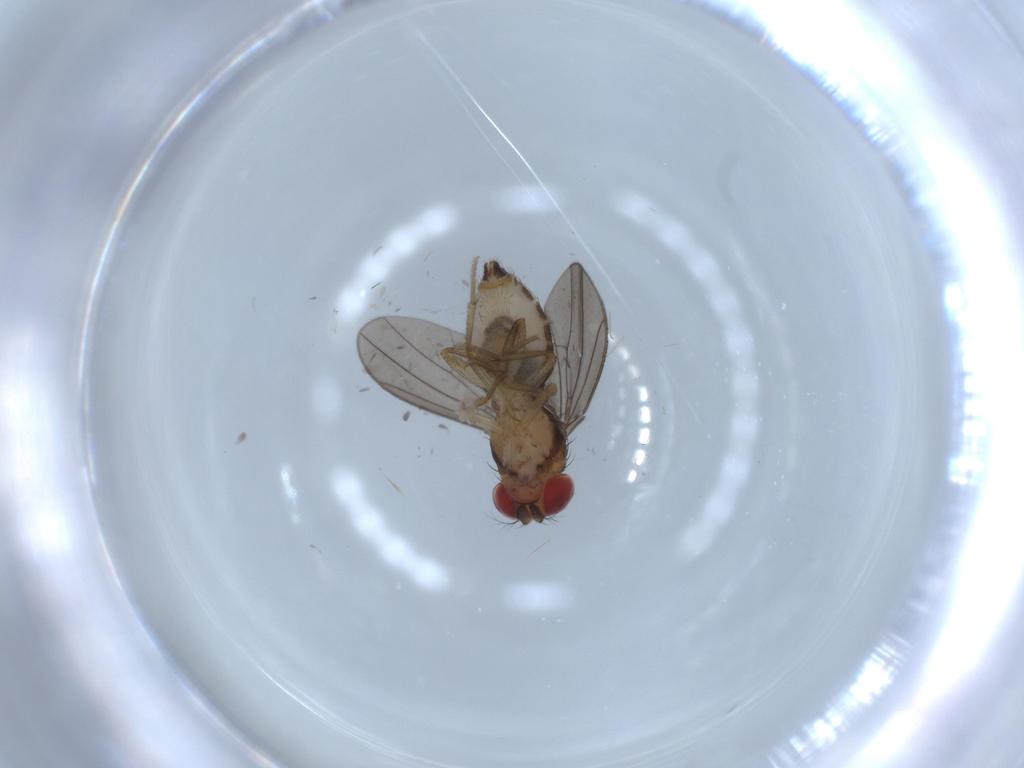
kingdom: Animalia
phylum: Arthropoda
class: Insecta
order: Diptera
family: Drosophilidae
